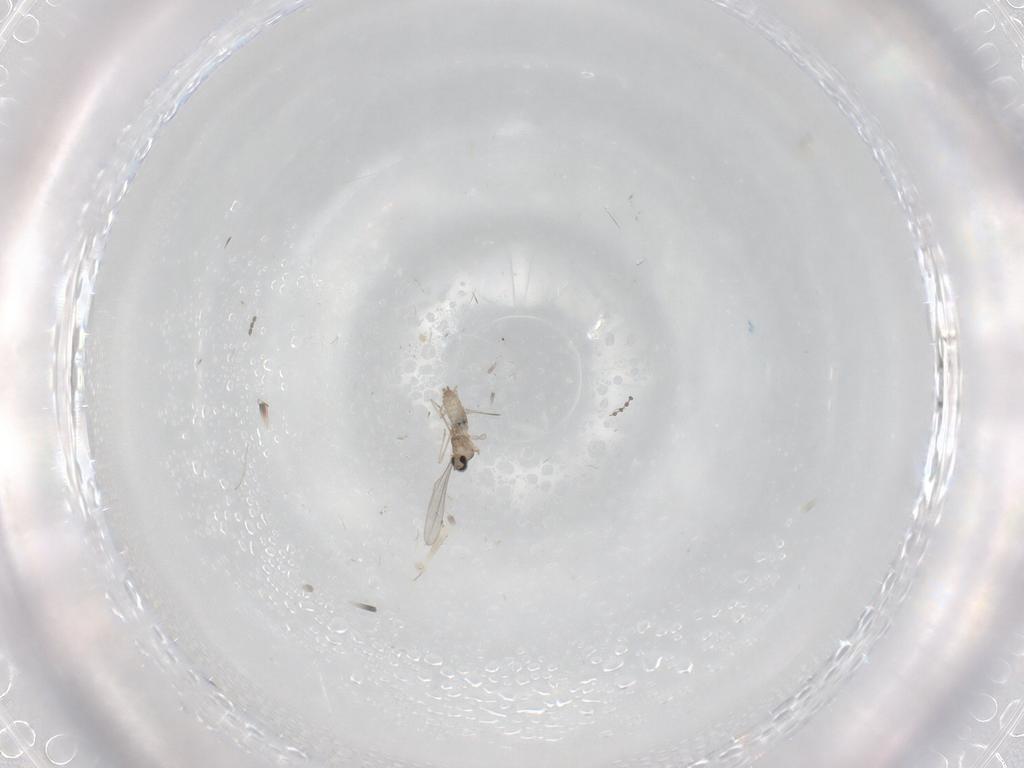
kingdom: Animalia
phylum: Arthropoda
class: Insecta
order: Diptera
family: Cecidomyiidae
